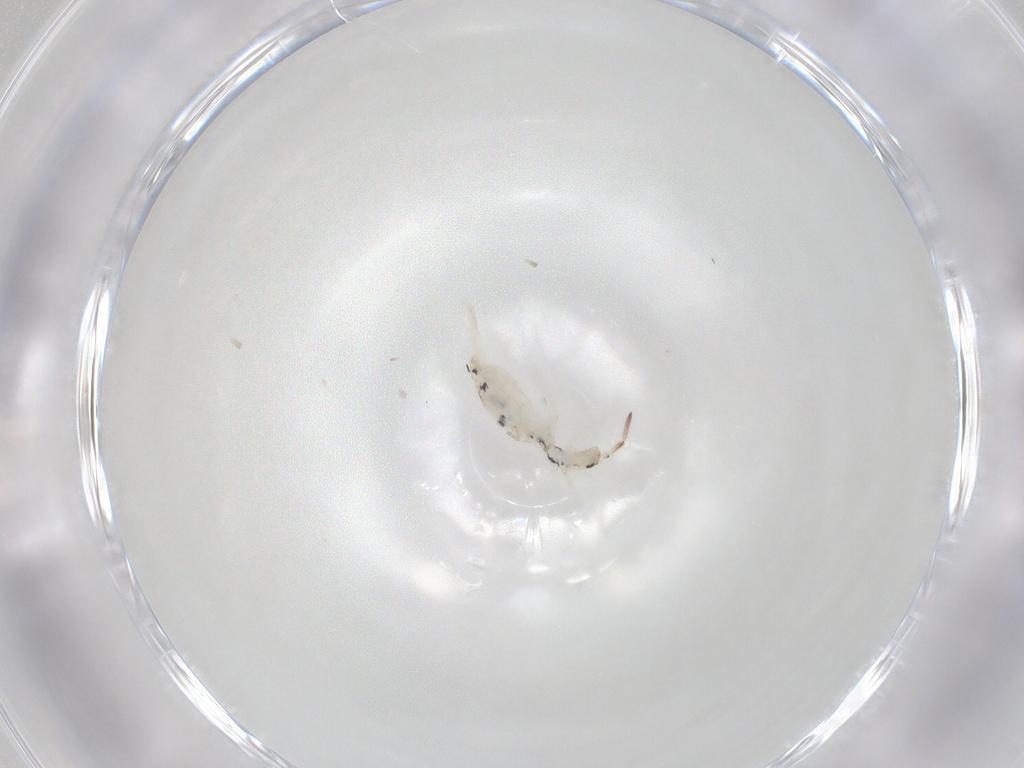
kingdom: Animalia
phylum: Arthropoda
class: Collembola
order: Entomobryomorpha
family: Entomobryidae
